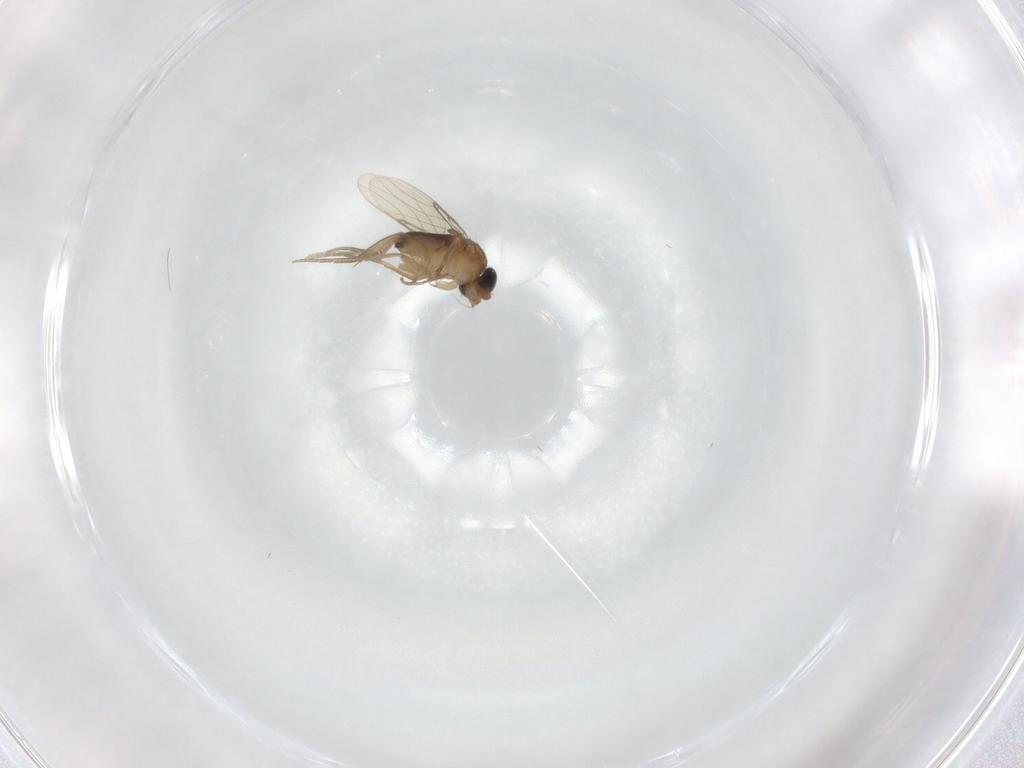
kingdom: Animalia
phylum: Arthropoda
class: Insecta
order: Diptera
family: Phoridae
